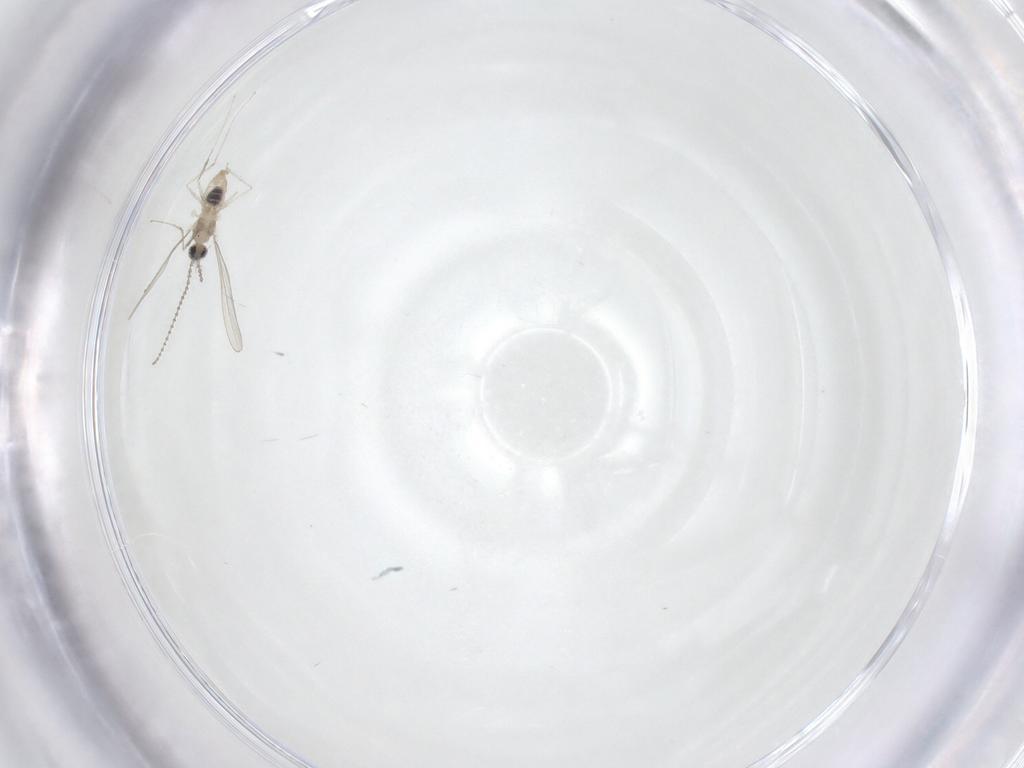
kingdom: Animalia
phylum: Arthropoda
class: Insecta
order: Diptera
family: Cecidomyiidae
